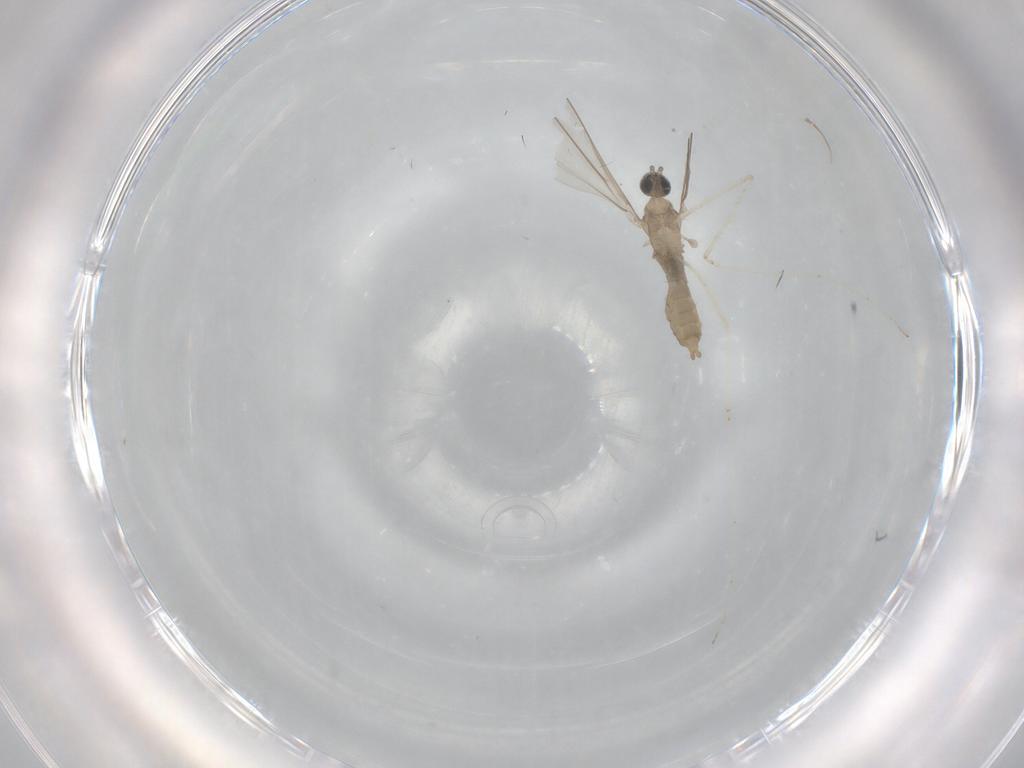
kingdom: Animalia
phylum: Arthropoda
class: Insecta
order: Diptera
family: Cecidomyiidae
